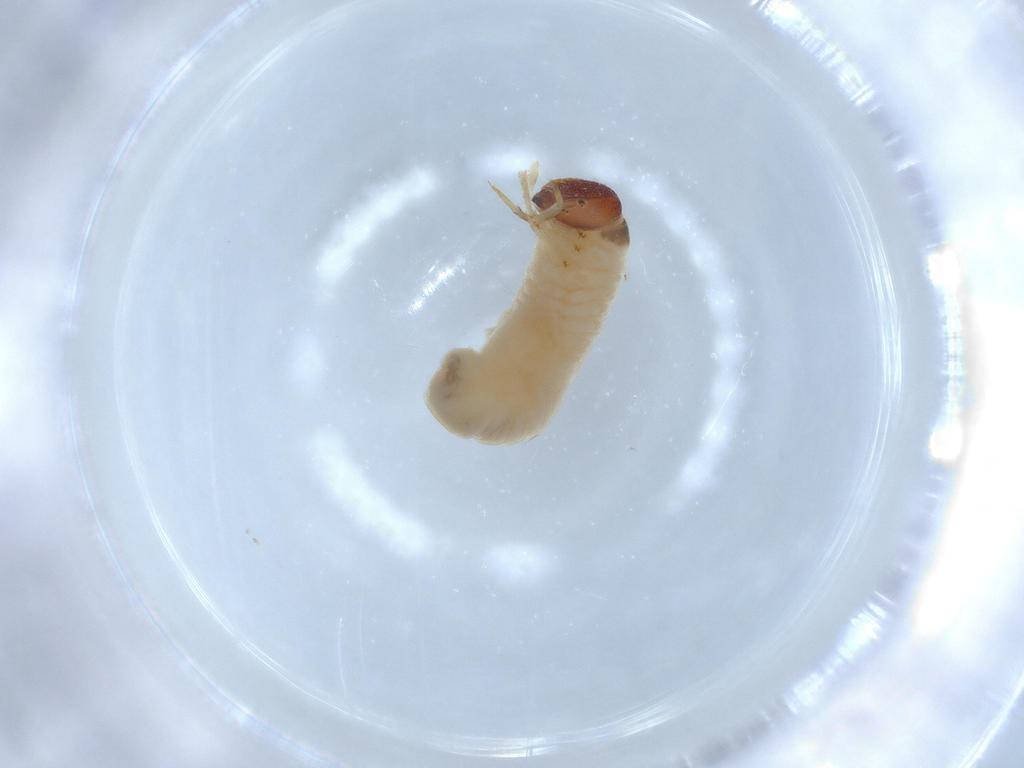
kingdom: Animalia
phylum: Arthropoda
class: Insecta
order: Coleoptera
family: Chrysomelidae
